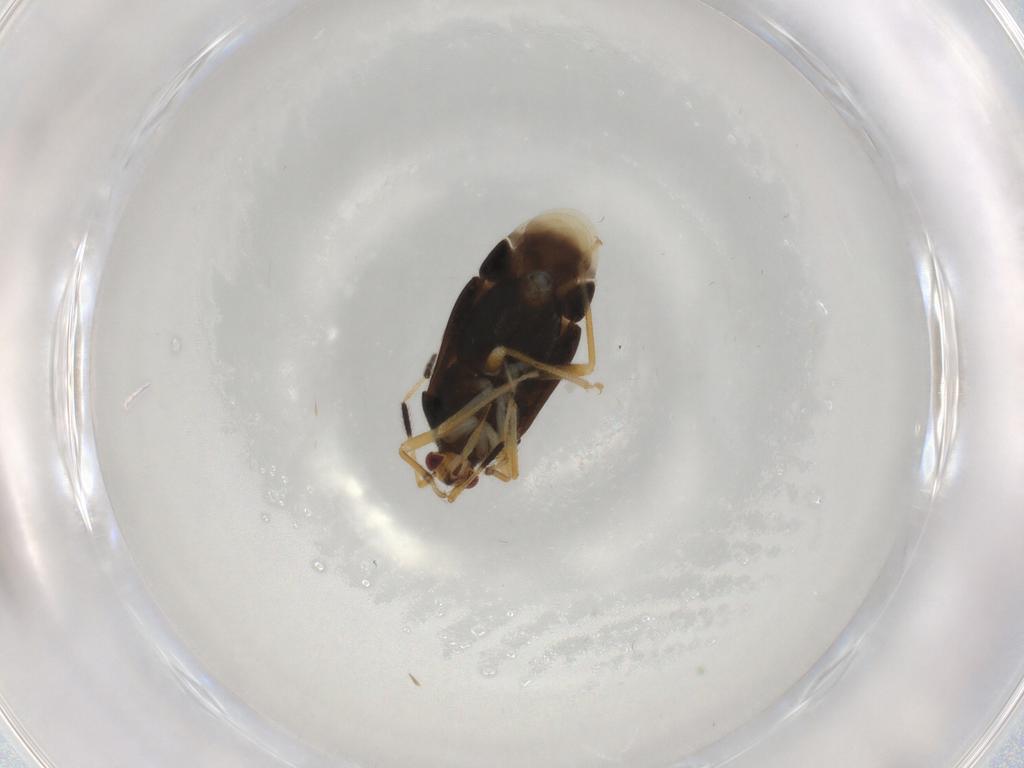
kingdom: Animalia
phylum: Arthropoda
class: Insecta
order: Hemiptera
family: Miridae
